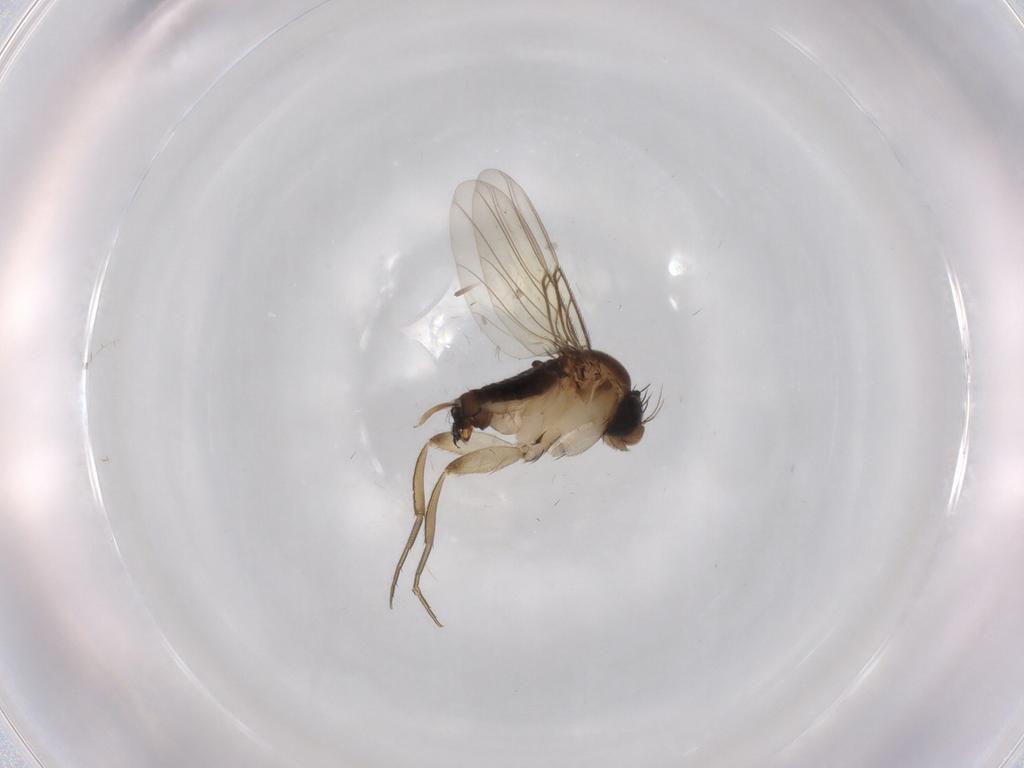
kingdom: Animalia
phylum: Arthropoda
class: Insecta
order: Diptera
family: Phoridae
